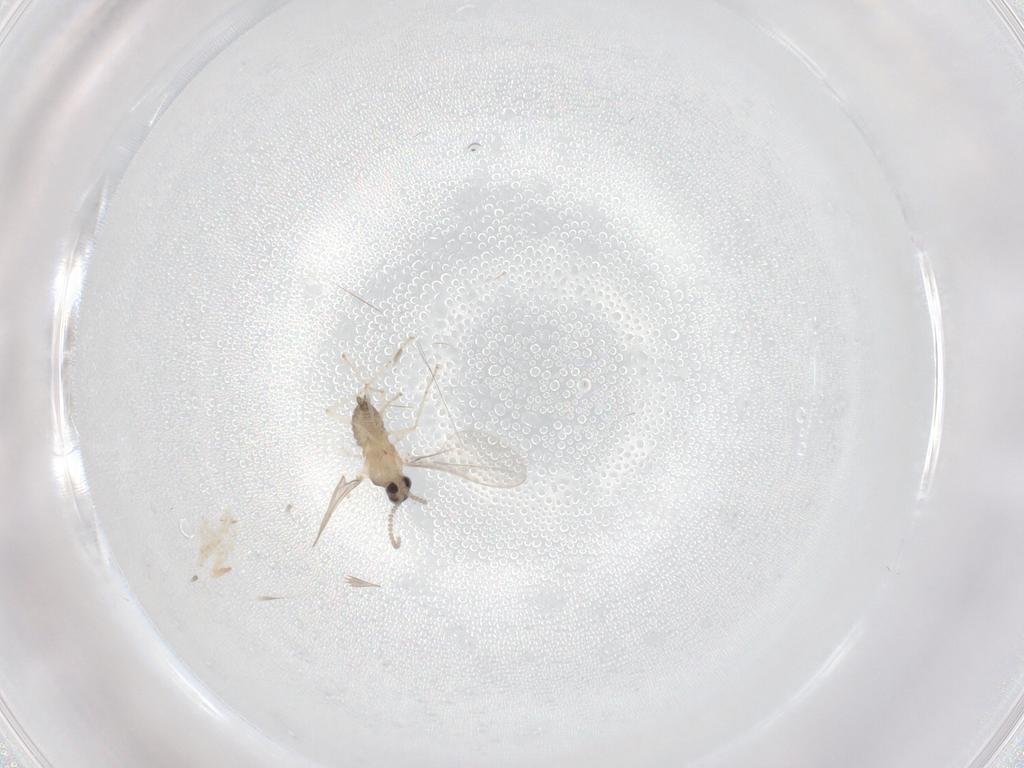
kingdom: Animalia
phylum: Arthropoda
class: Insecta
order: Diptera
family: Cecidomyiidae
